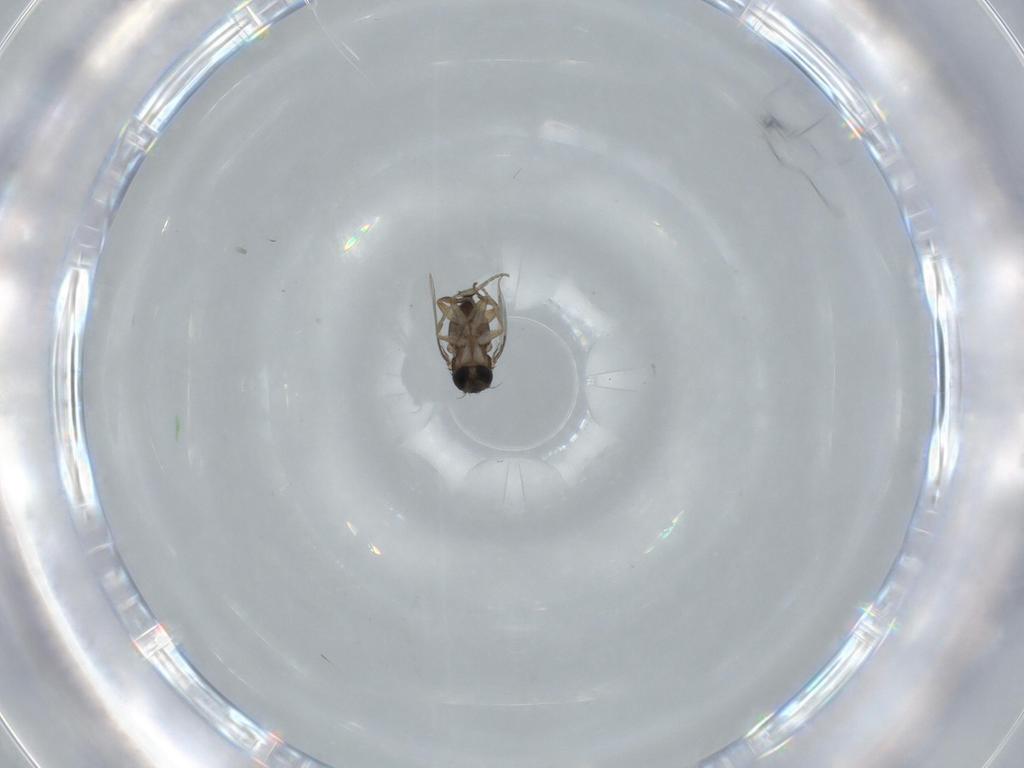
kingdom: Animalia
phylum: Arthropoda
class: Insecta
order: Diptera
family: Phoridae
